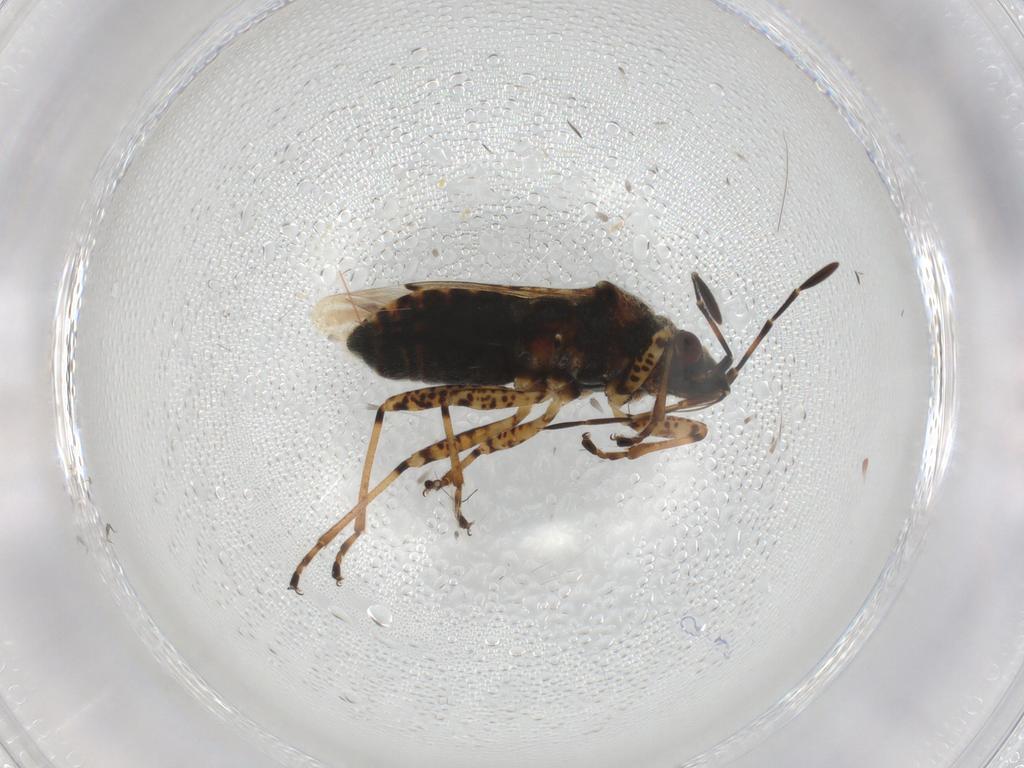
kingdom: Animalia
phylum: Arthropoda
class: Insecta
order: Hemiptera
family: Lygaeidae
